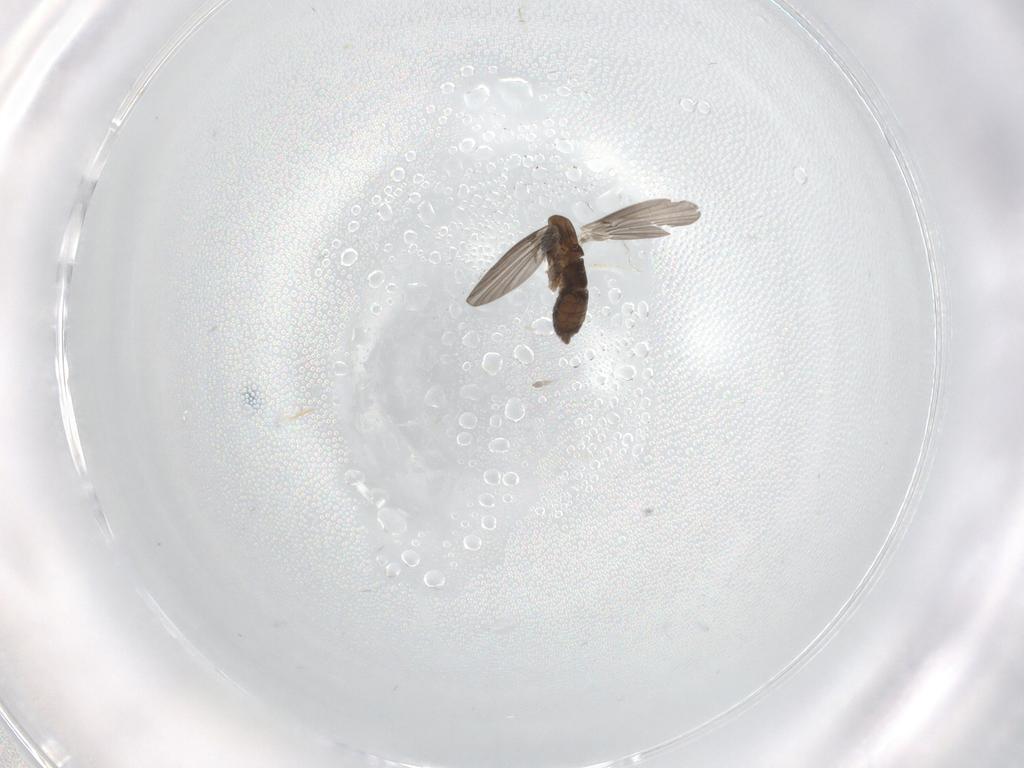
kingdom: Animalia
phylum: Arthropoda
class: Insecta
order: Diptera
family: Cecidomyiidae
